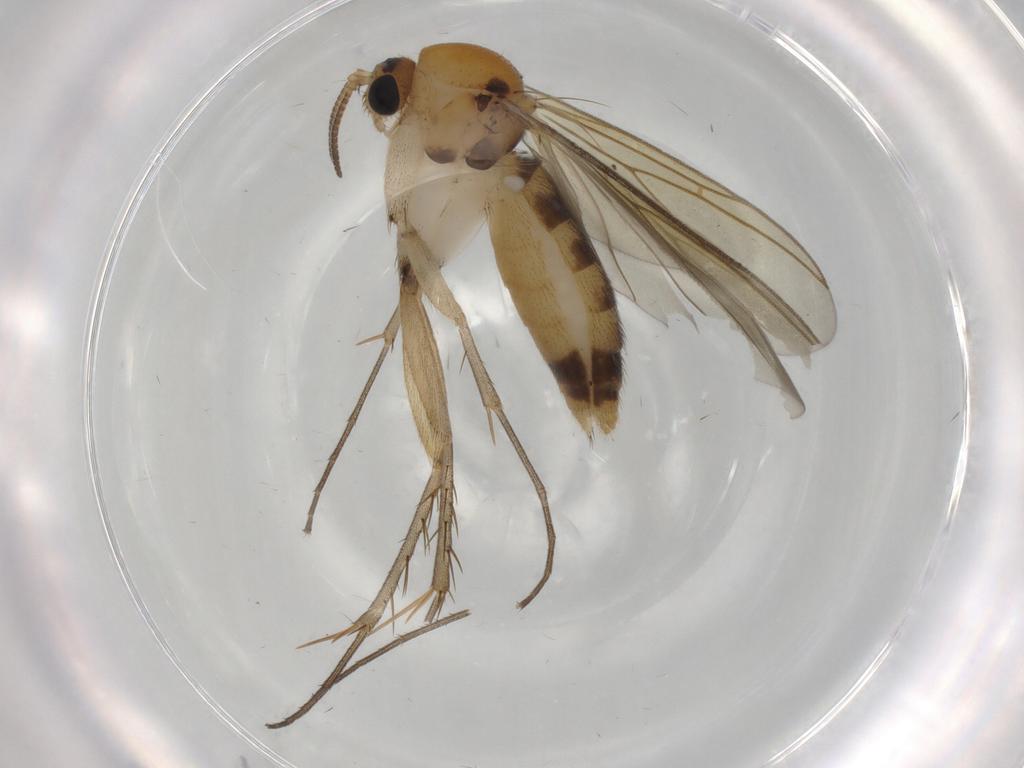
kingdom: Animalia
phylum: Arthropoda
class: Insecta
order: Diptera
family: Mycetophilidae
